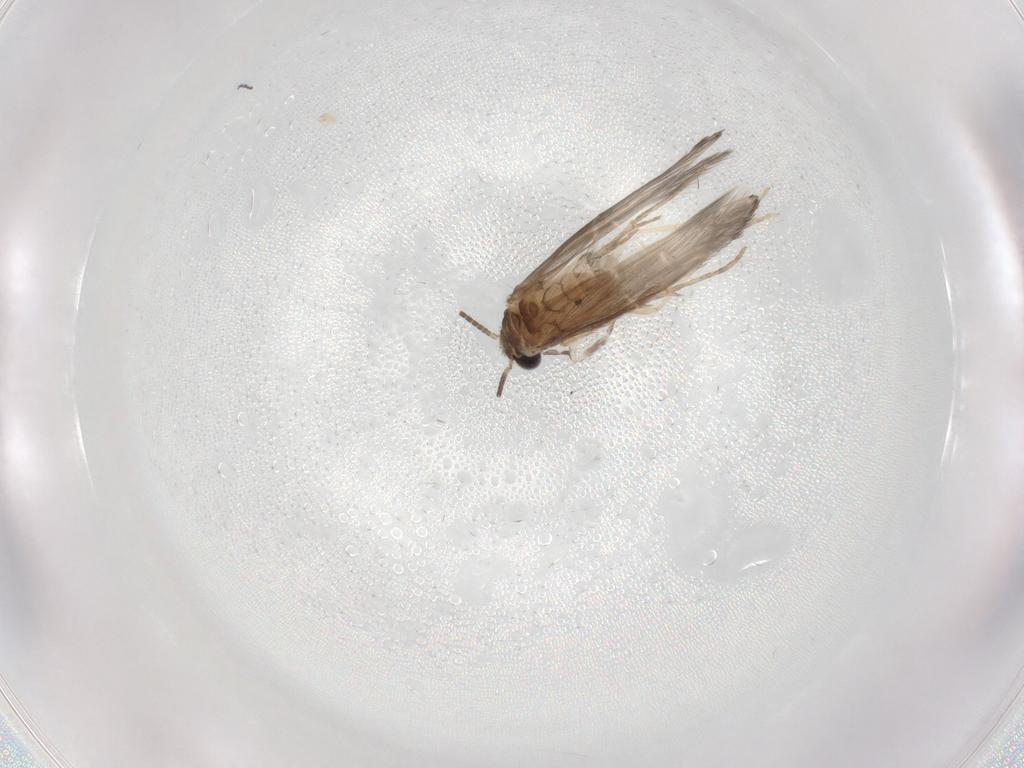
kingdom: Animalia
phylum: Arthropoda
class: Insecta
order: Trichoptera
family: Hydroptilidae
